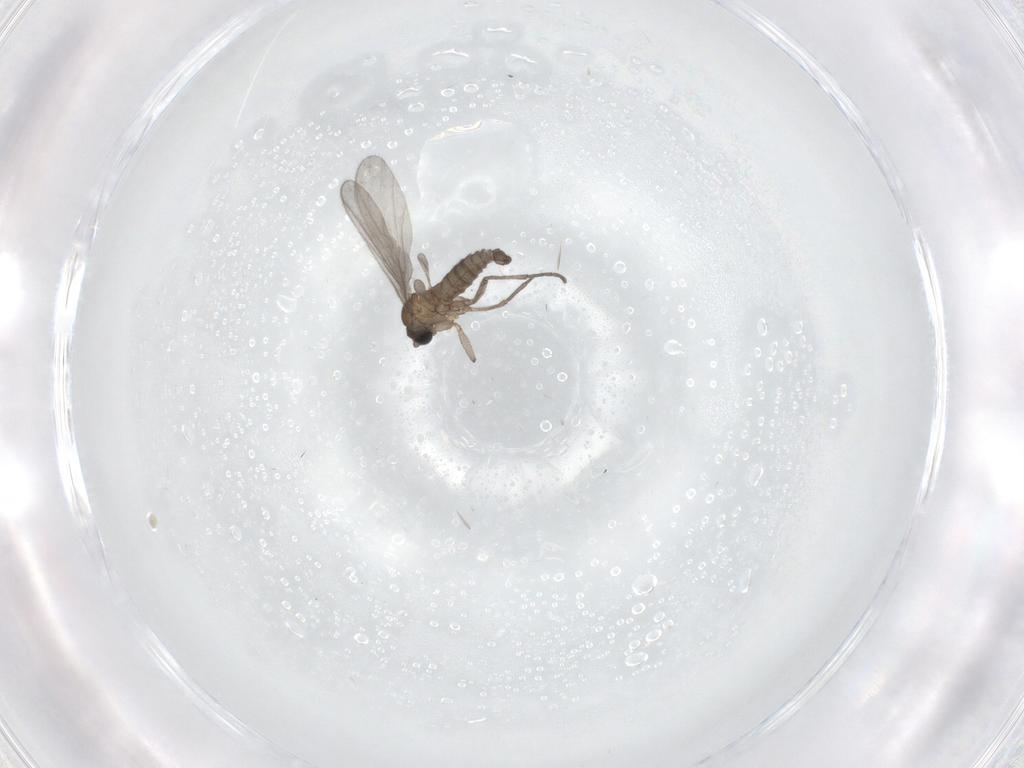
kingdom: Animalia
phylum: Arthropoda
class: Insecta
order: Diptera
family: Sciaridae
